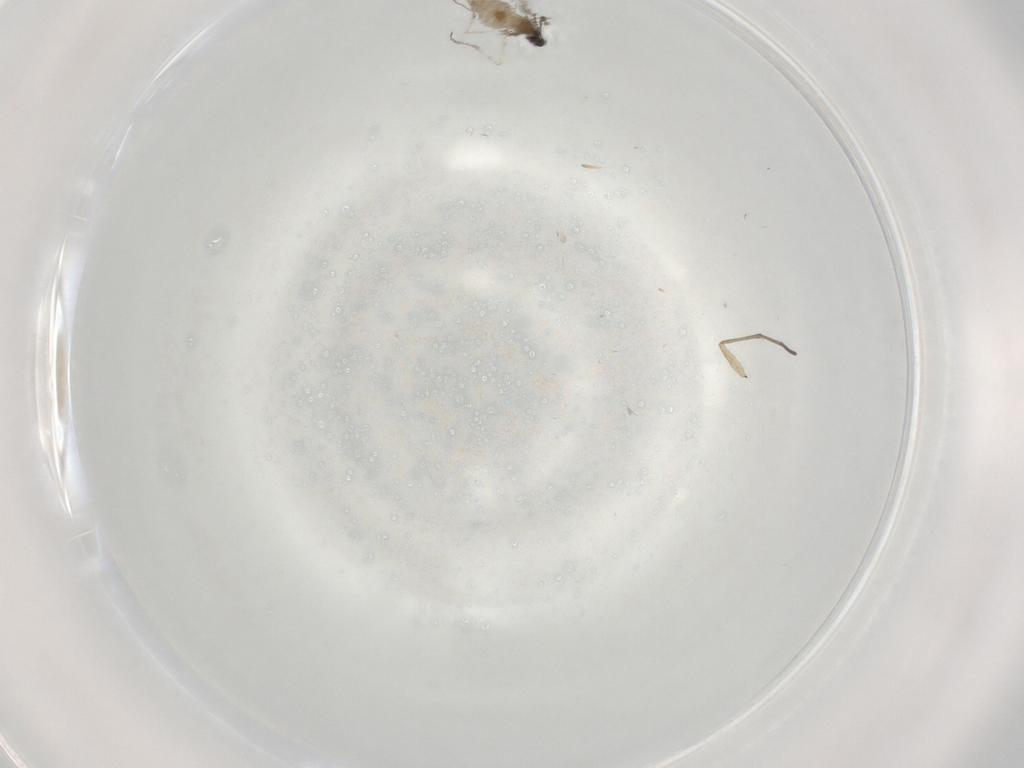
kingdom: Animalia
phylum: Arthropoda
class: Insecta
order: Diptera
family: Cecidomyiidae
